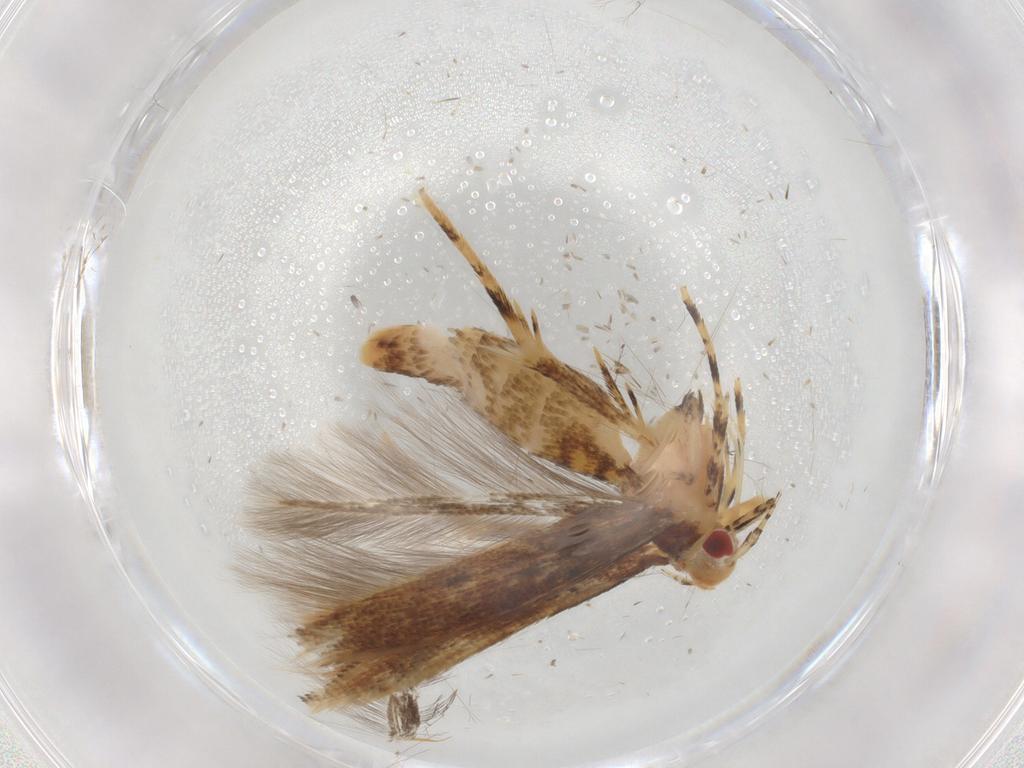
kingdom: Animalia
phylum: Arthropoda
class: Insecta
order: Lepidoptera
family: Cosmopterigidae
